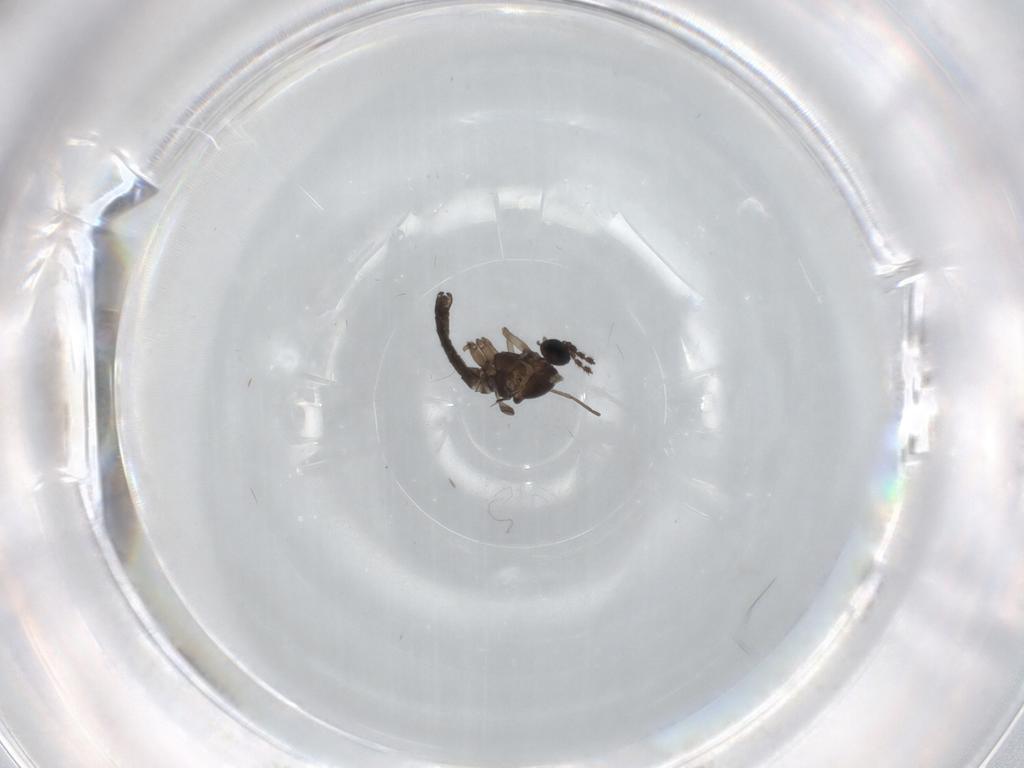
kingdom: Animalia
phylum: Arthropoda
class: Insecta
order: Diptera
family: Sciaridae
